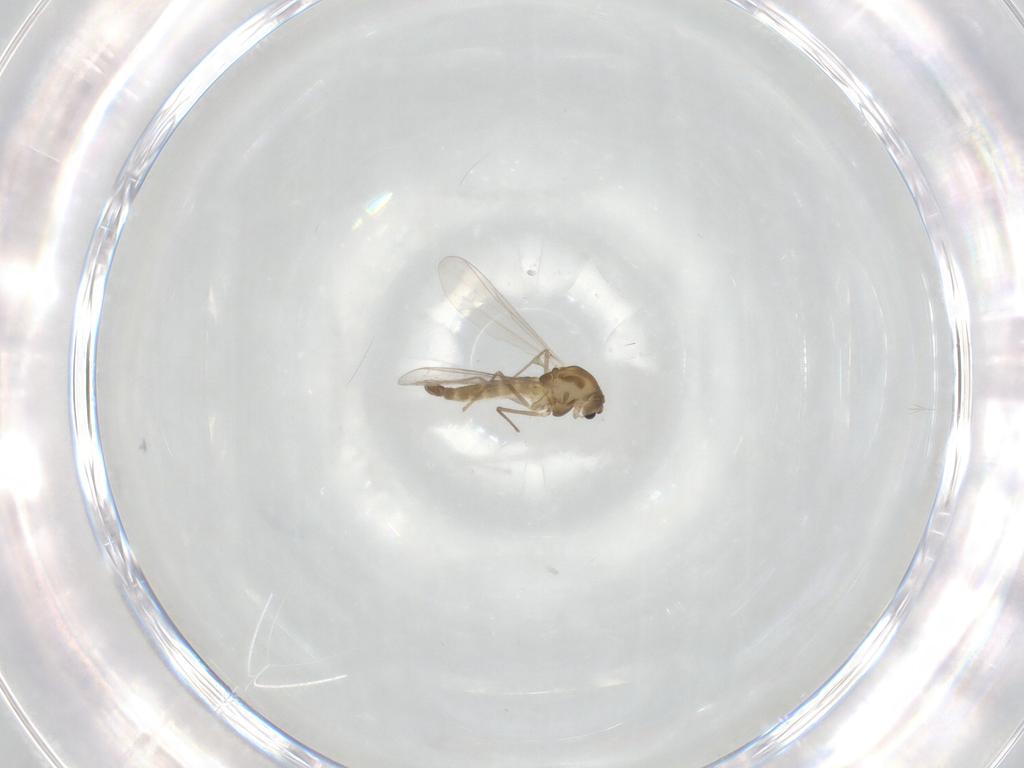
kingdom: Animalia
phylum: Arthropoda
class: Insecta
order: Diptera
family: Chironomidae
